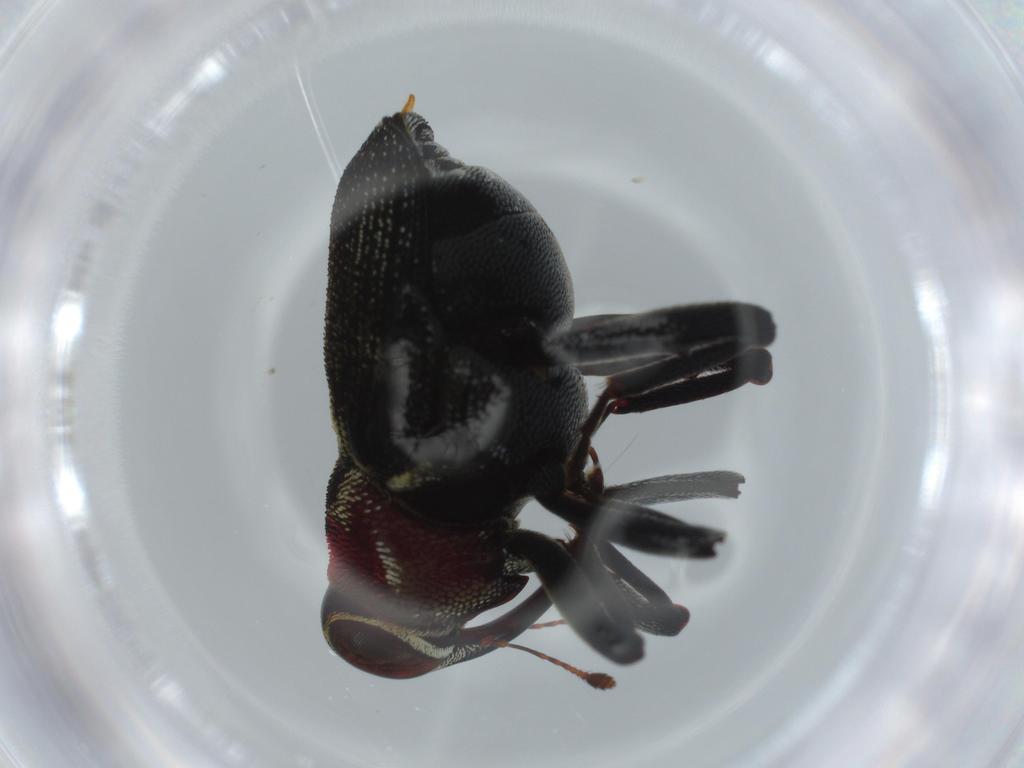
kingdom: Animalia
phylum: Arthropoda
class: Insecta
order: Coleoptera
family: Curculionidae
